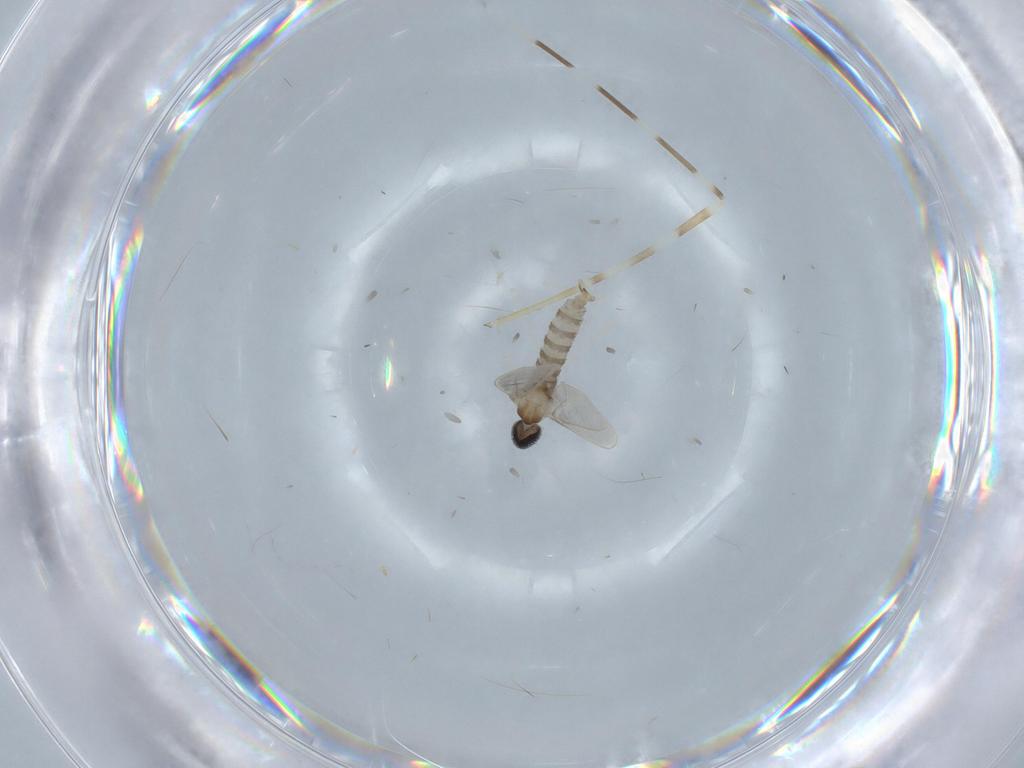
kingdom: Animalia
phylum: Arthropoda
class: Insecta
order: Diptera
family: Cecidomyiidae
